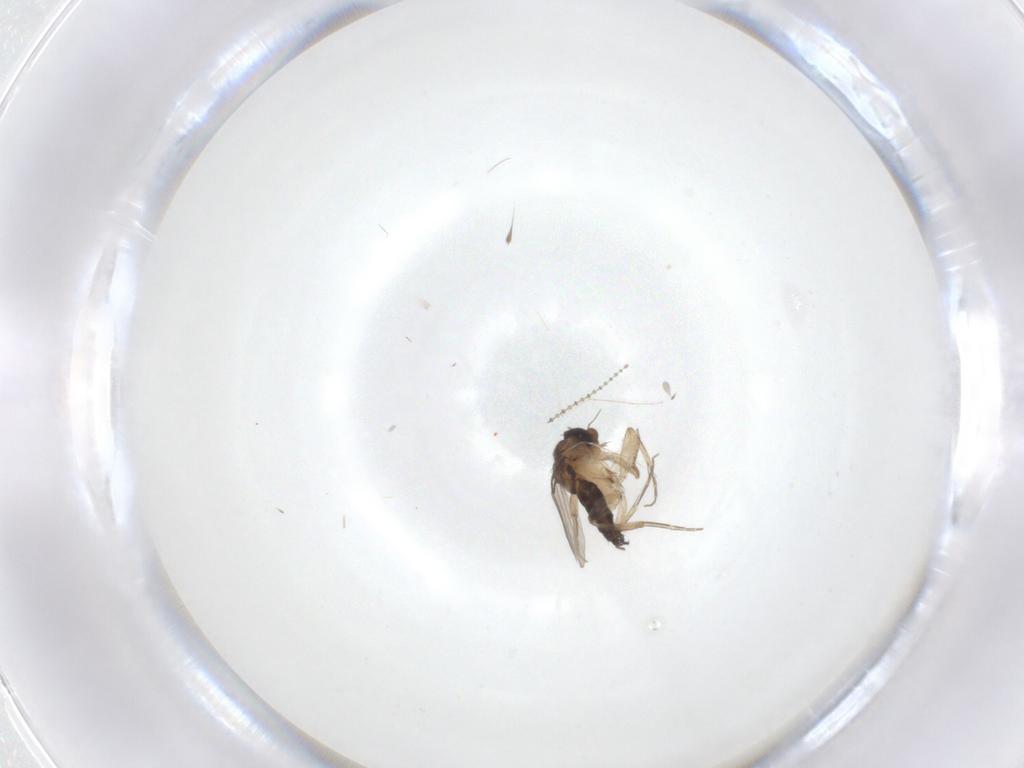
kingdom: Animalia
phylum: Arthropoda
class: Insecta
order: Diptera
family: Phoridae
